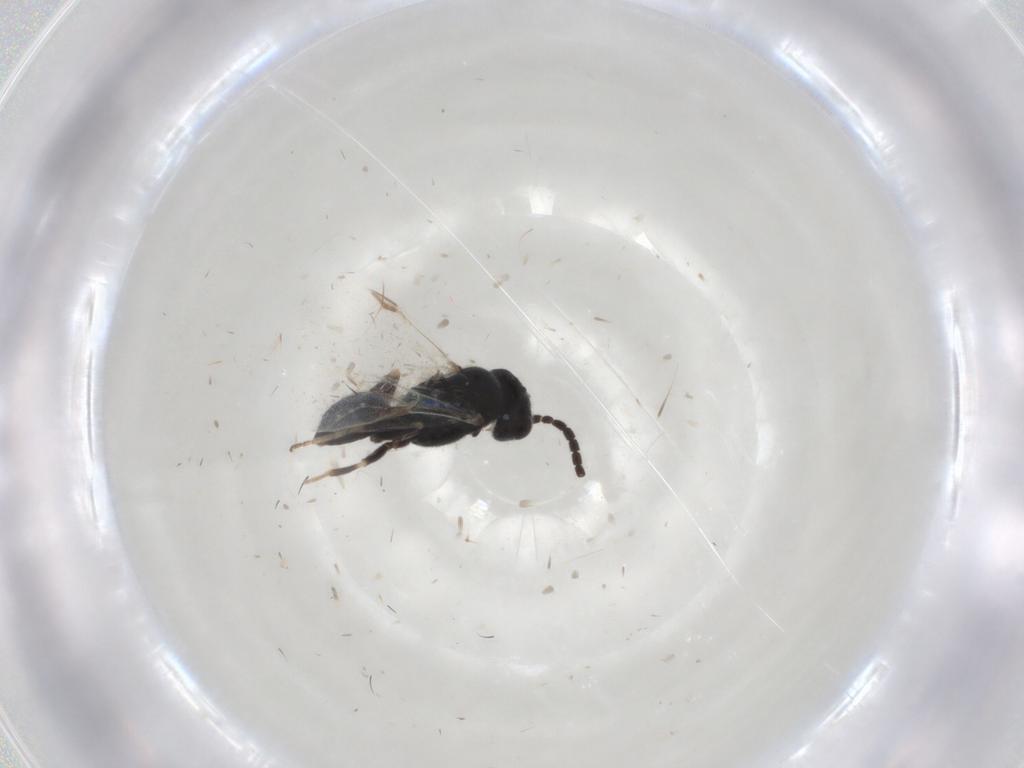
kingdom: Animalia
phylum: Arthropoda
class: Insecta
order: Hymenoptera
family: Dryinidae
